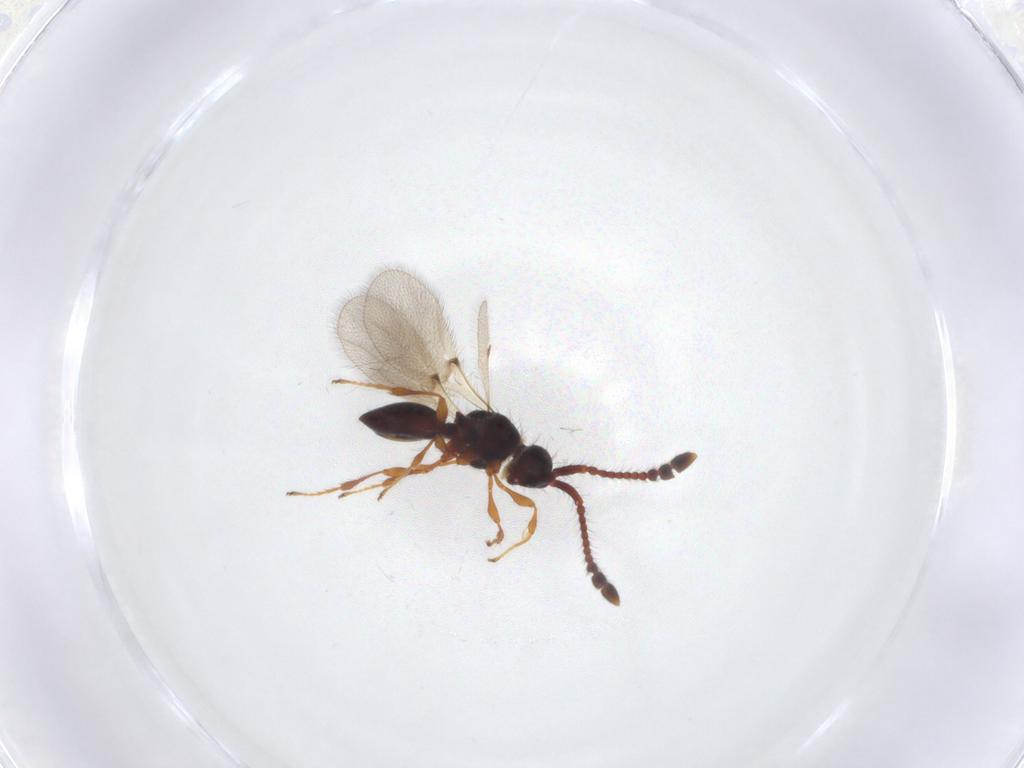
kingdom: Animalia
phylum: Arthropoda
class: Insecta
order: Hymenoptera
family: Diapriidae
